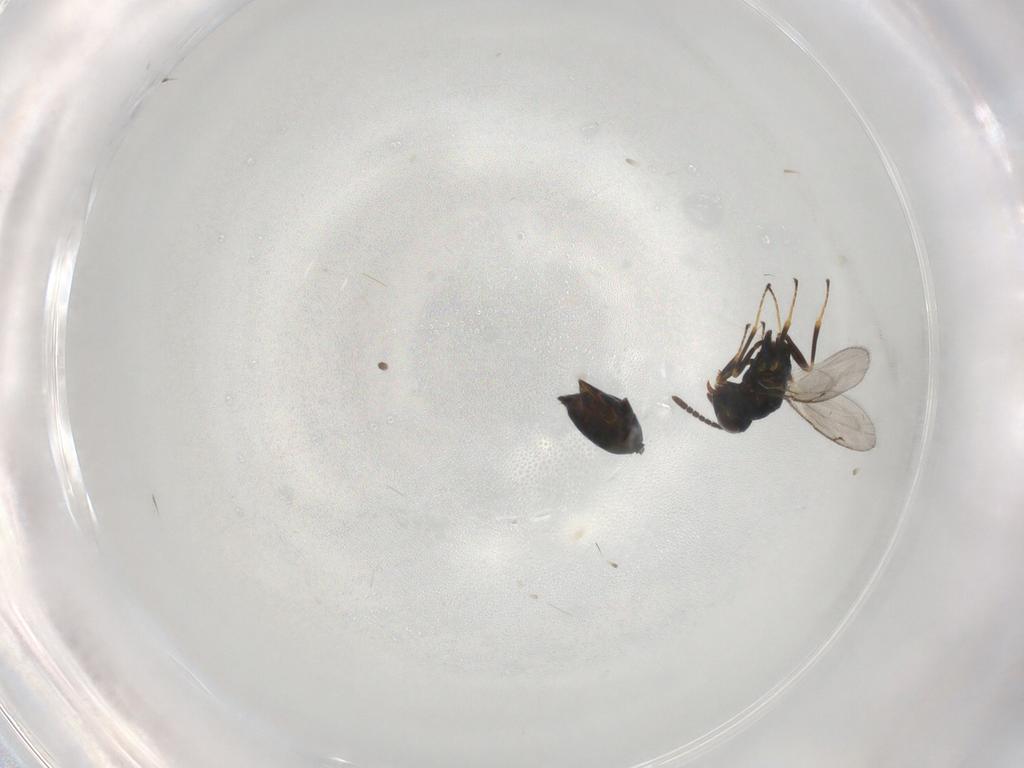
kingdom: Animalia
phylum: Arthropoda
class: Insecta
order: Hymenoptera
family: Pteromalidae
